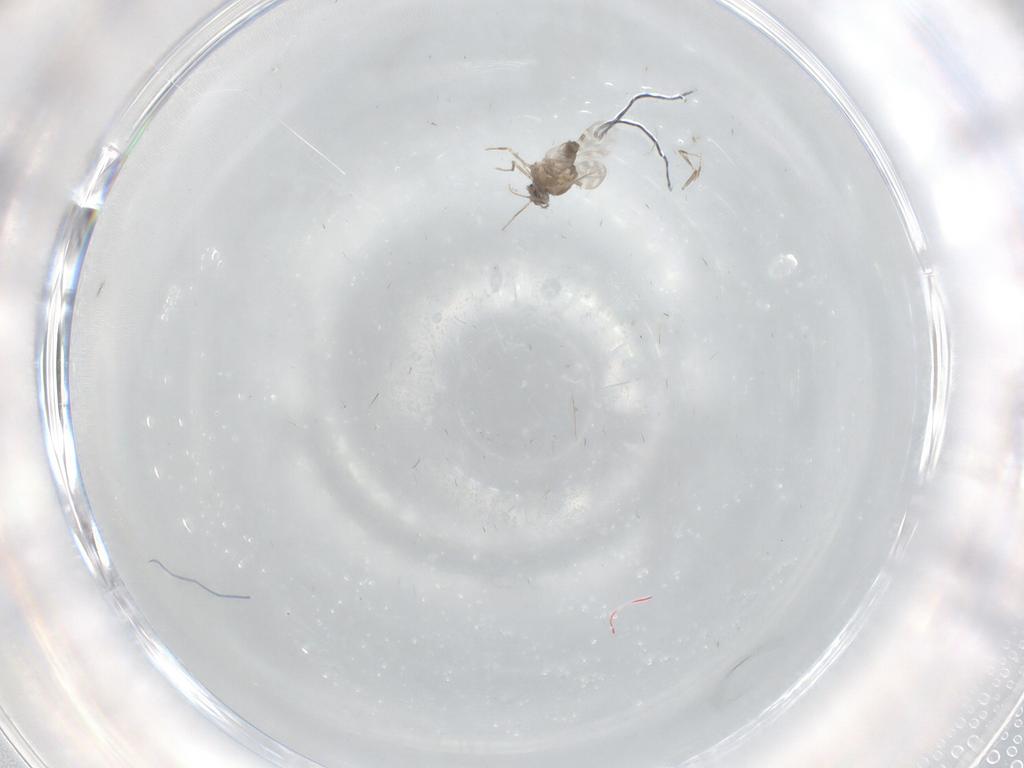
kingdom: Animalia
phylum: Arthropoda
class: Insecta
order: Diptera
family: Ceratopogonidae
